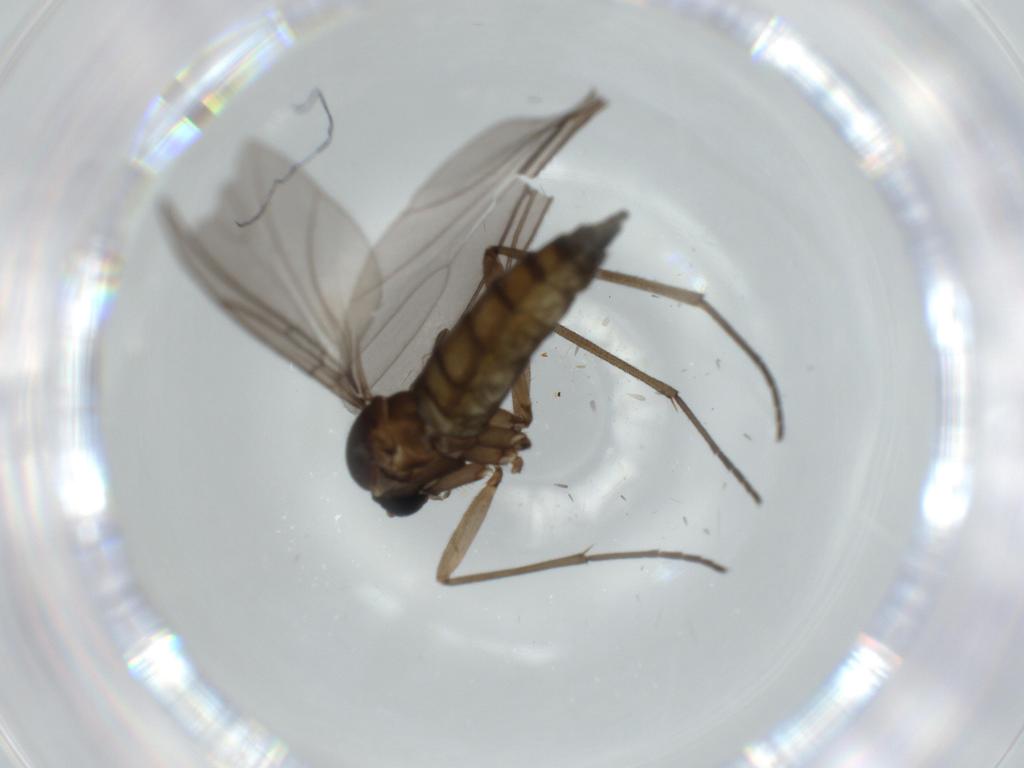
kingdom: Animalia
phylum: Arthropoda
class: Insecta
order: Diptera
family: Sciaridae
